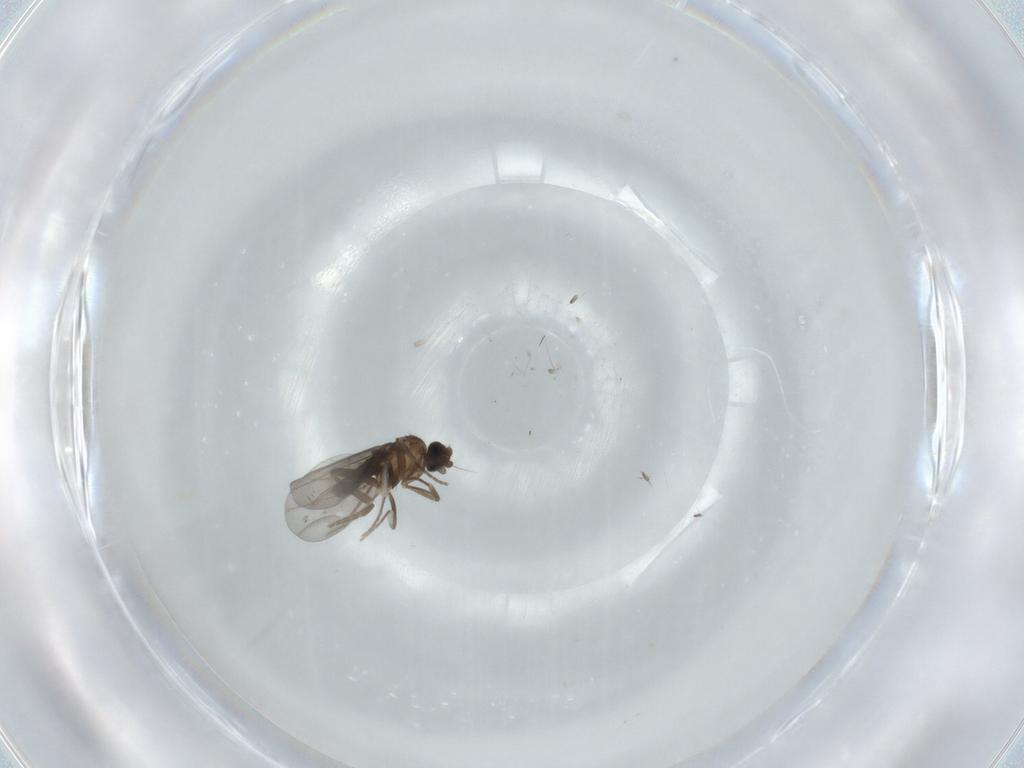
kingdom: Animalia
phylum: Arthropoda
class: Insecta
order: Diptera
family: Phoridae
